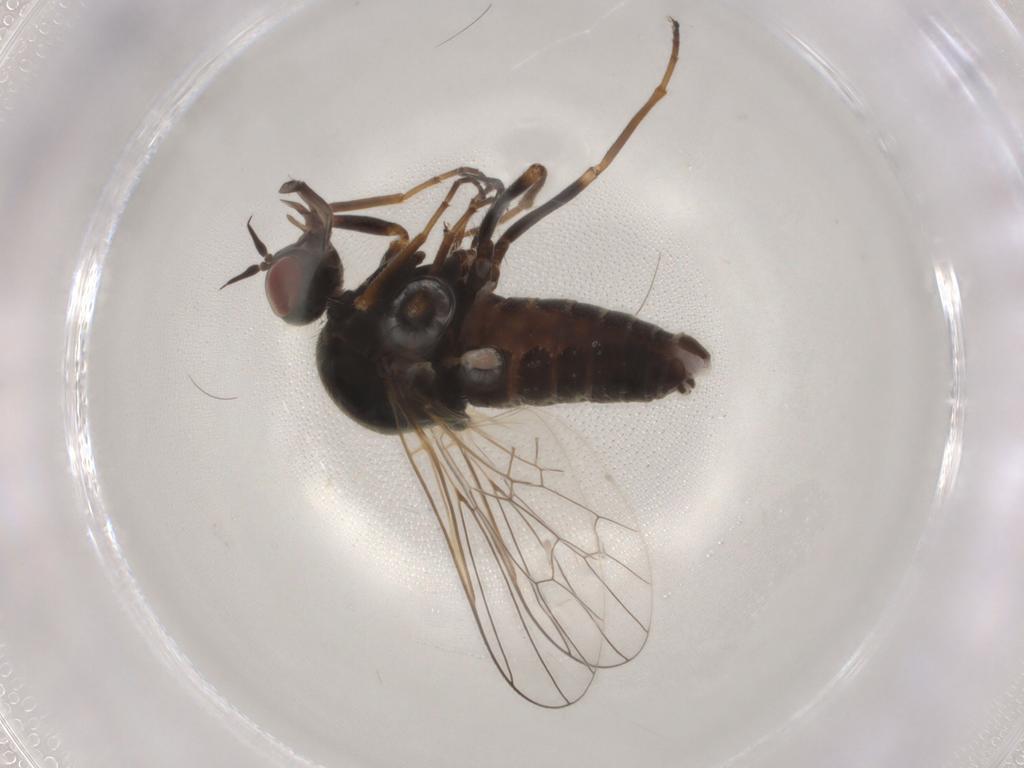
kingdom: Animalia
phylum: Arthropoda
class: Insecta
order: Diptera
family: Chironomidae
